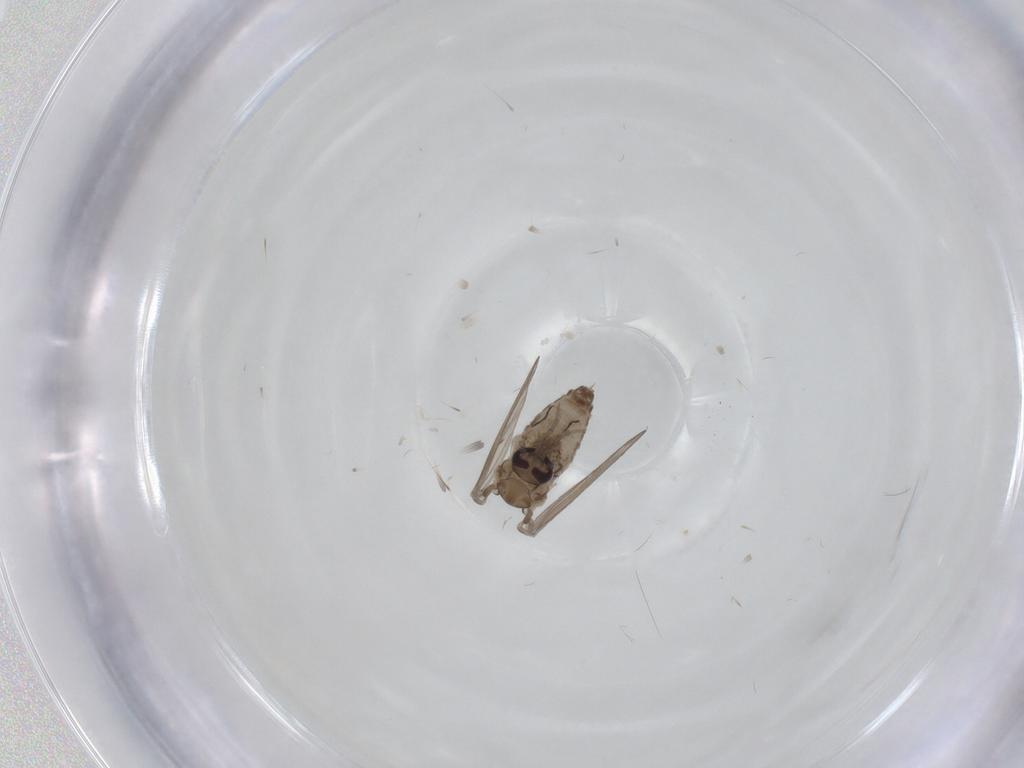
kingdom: Animalia
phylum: Arthropoda
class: Insecta
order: Diptera
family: Psychodidae
